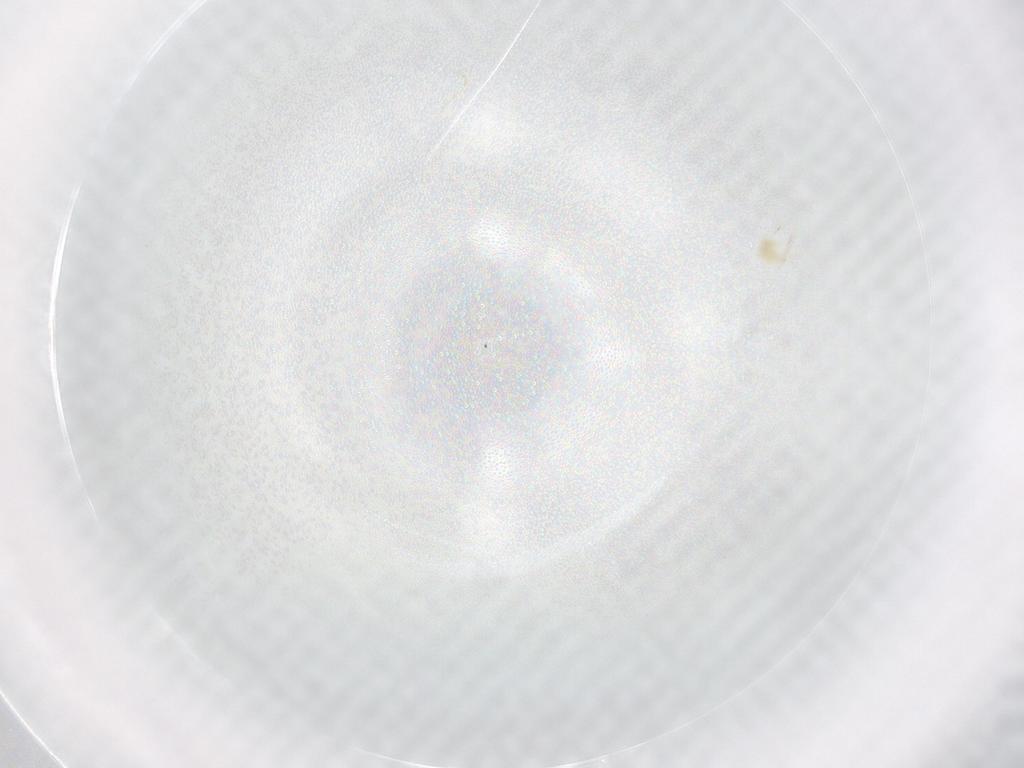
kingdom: Animalia
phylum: Arthropoda
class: Arachnida
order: Trombidiformes
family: Tetranychidae
